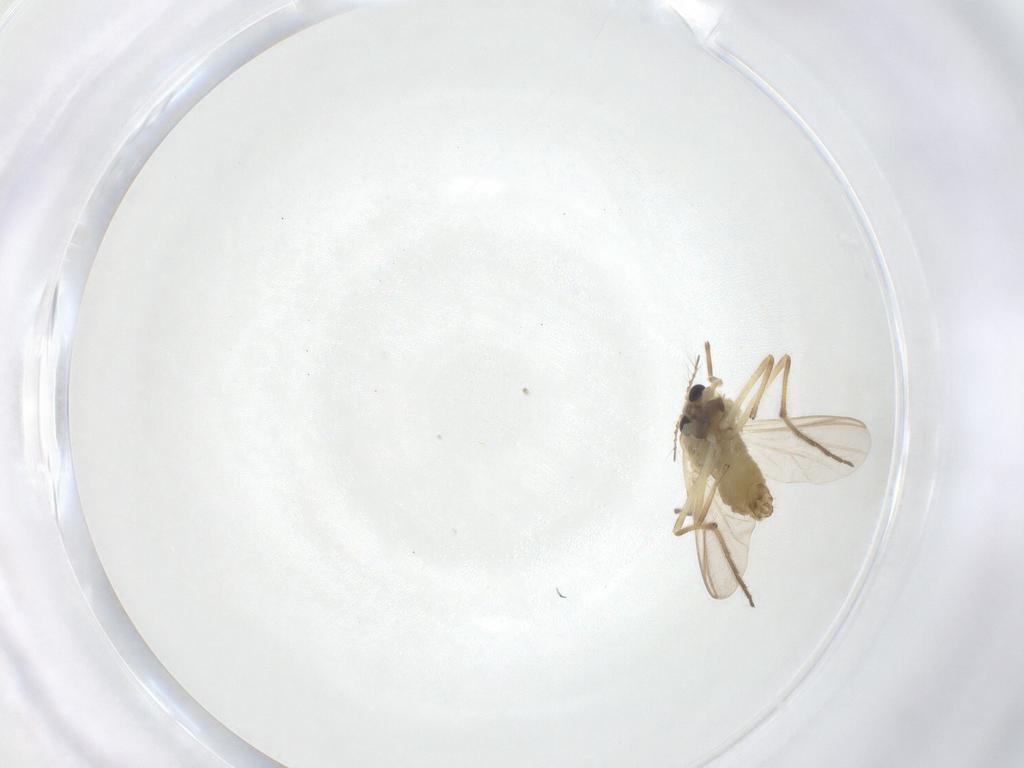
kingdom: Animalia
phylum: Arthropoda
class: Insecta
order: Diptera
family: Chironomidae
